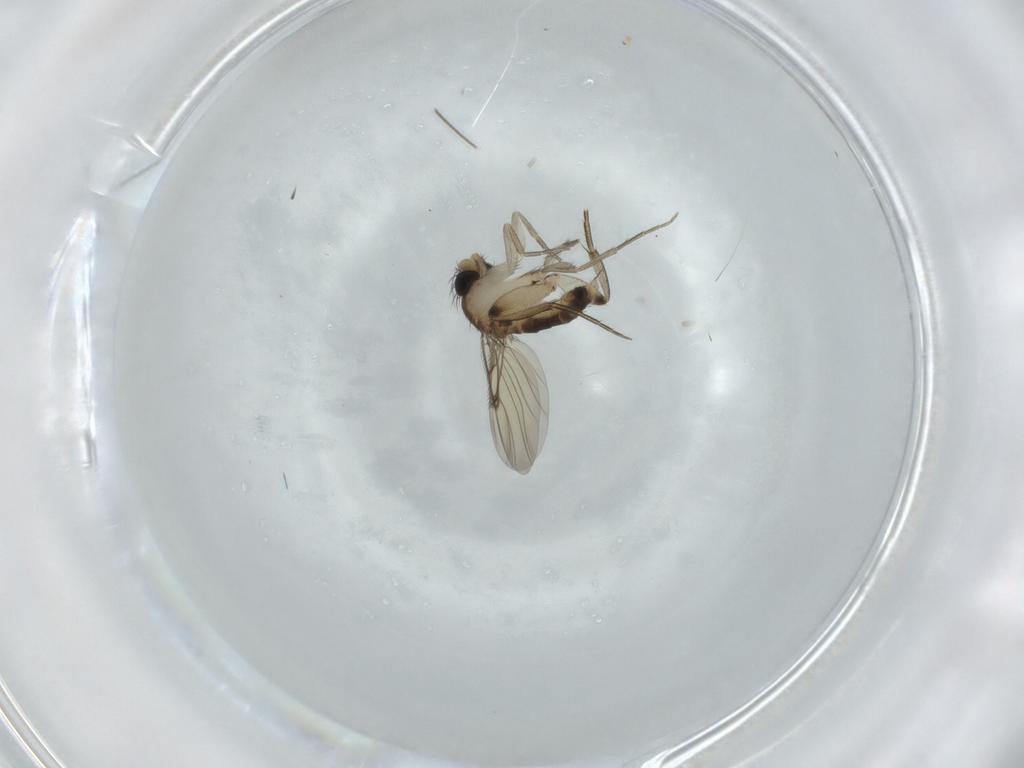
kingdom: Animalia
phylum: Arthropoda
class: Insecta
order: Diptera
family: Phoridae
